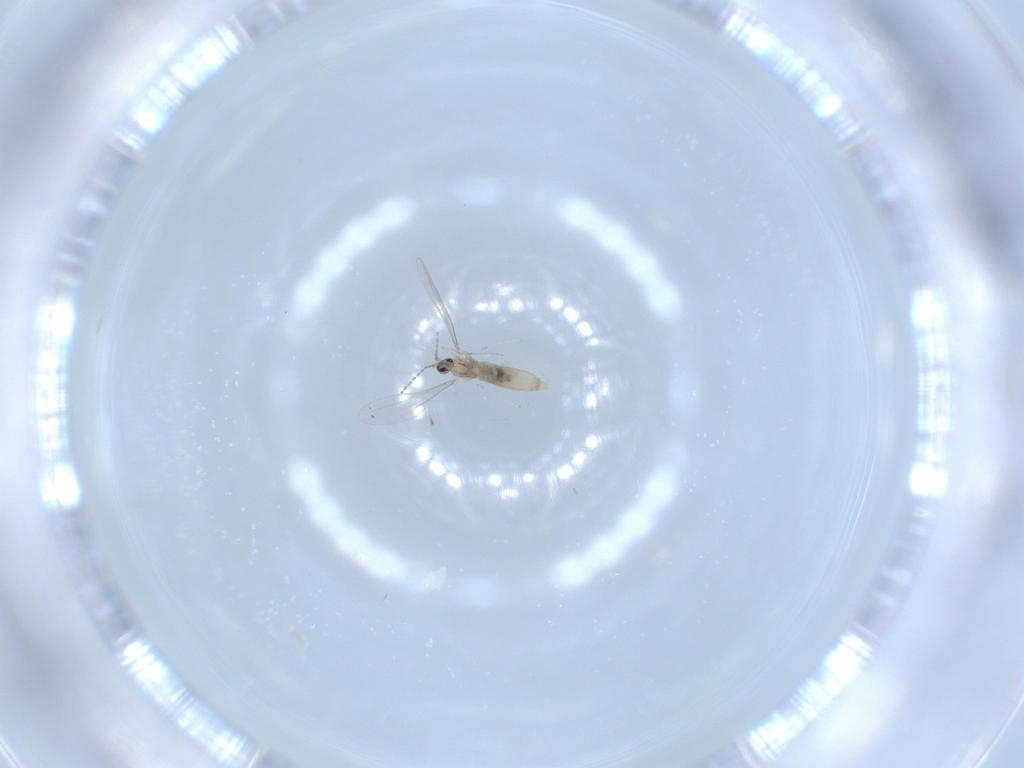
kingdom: Animalia
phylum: Arthropoda
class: Insecta
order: Diptera
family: Cecidomyiidae
